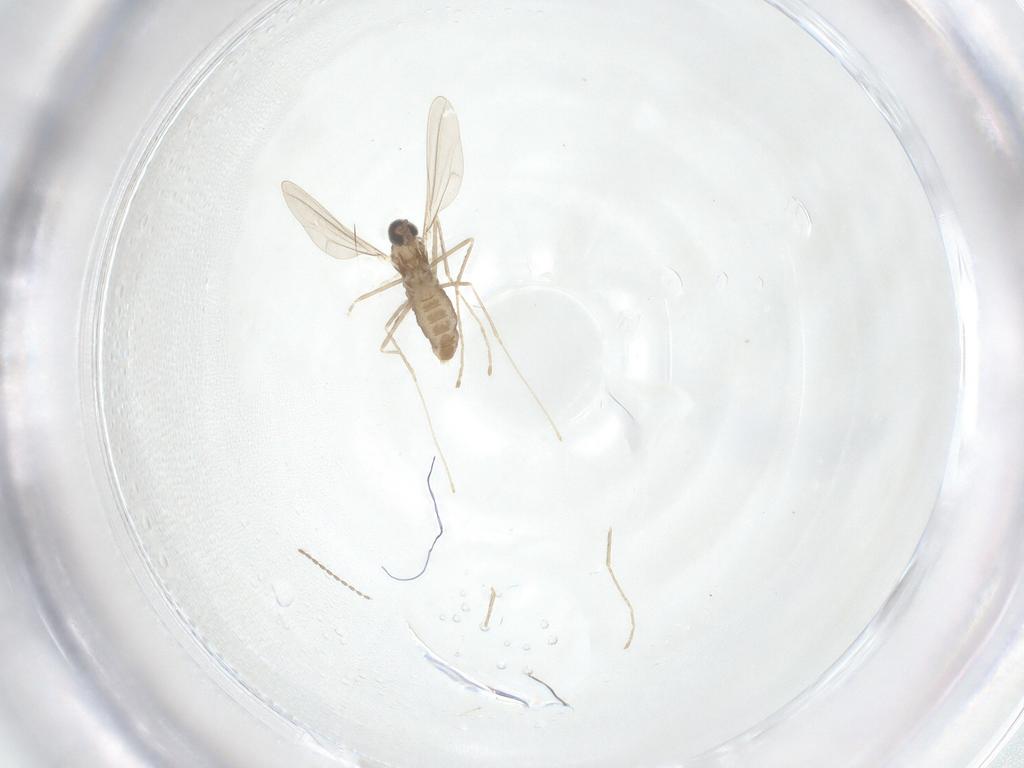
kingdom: Animalia
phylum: Arthropoda
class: Insecta
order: Diptera
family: Cecidomyiidae
